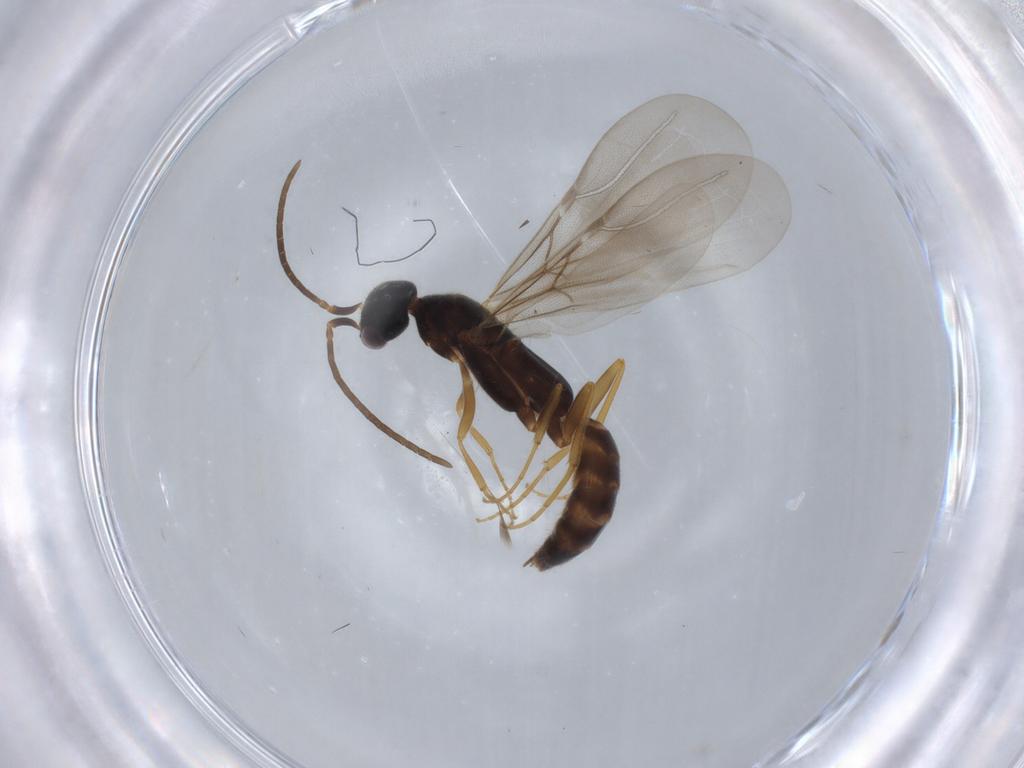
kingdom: Animalia
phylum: Arthropoda
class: Insecta
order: Hymenoptera
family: Bethylidae
